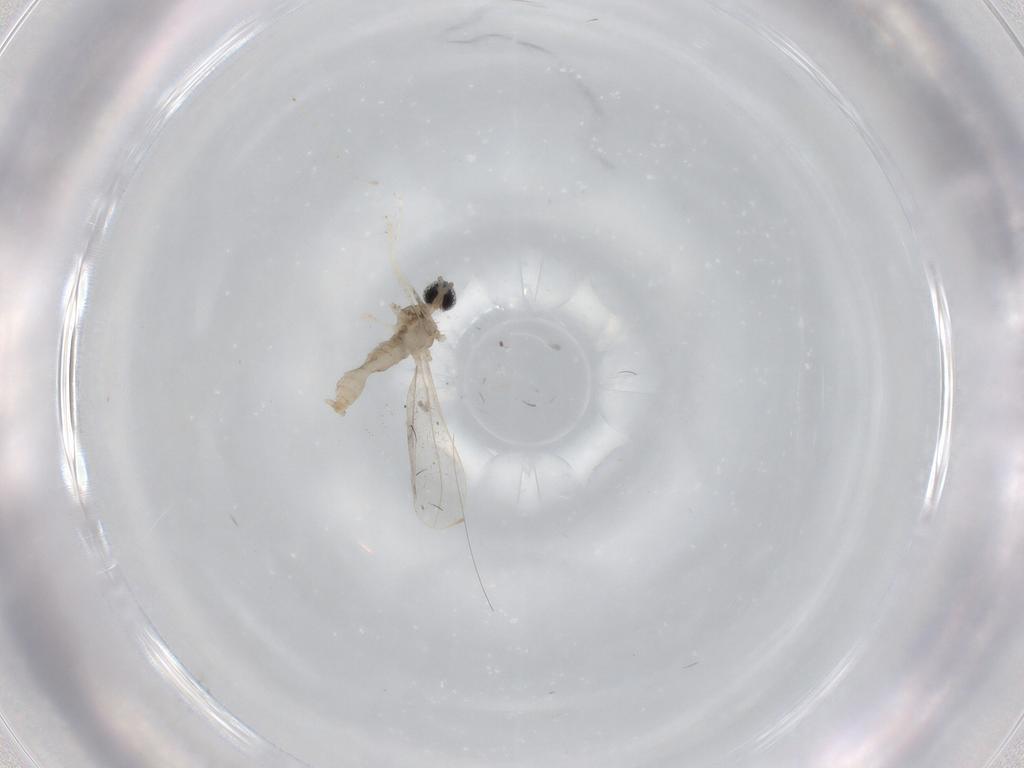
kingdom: Animalia
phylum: Arthropoda
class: Insecta
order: Diptera
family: Cecidomyiidae
